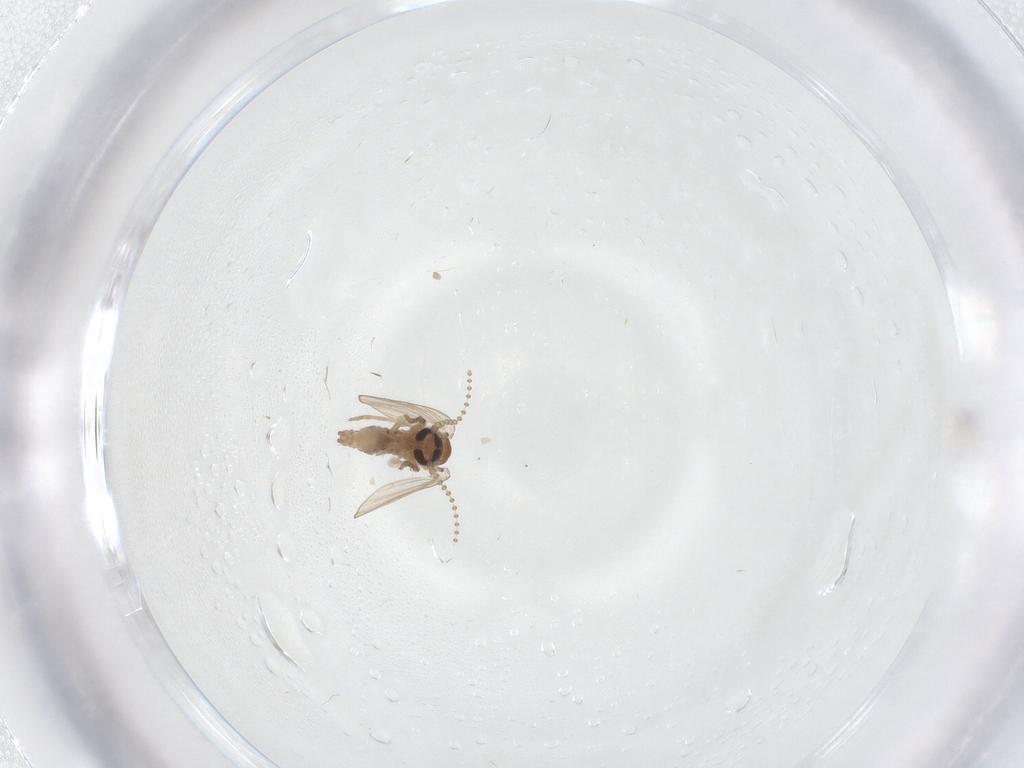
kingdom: Animalia
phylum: Arthropoda
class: Insecta
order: Diptera
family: Psychodidae
